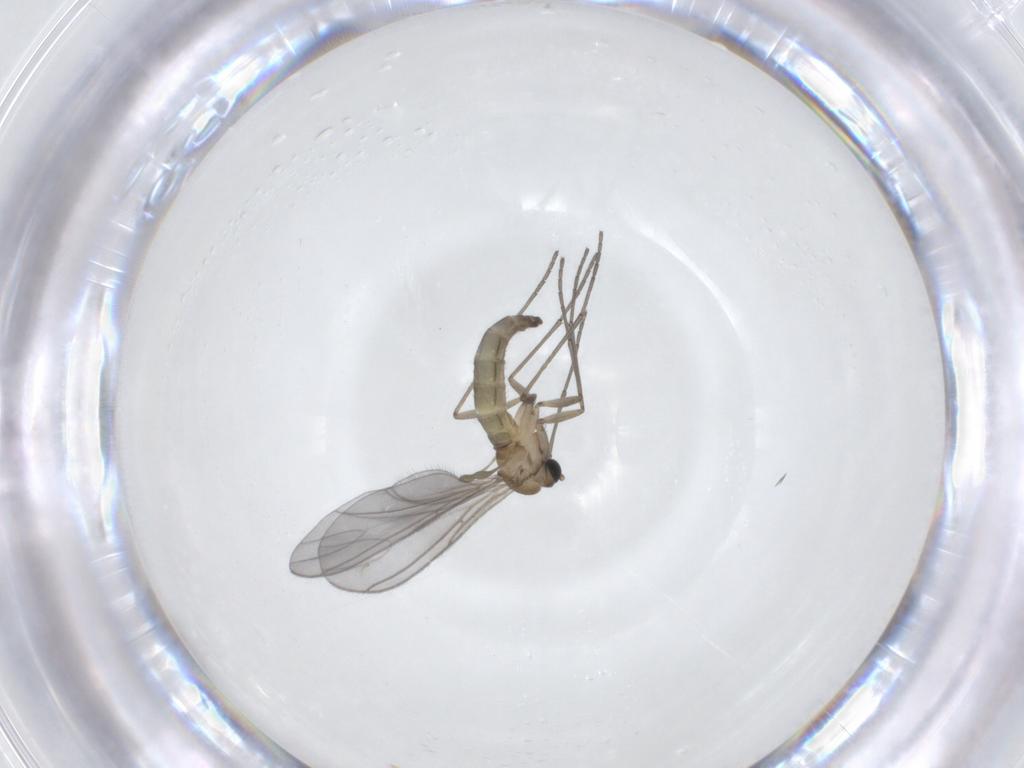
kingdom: Animalia
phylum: Arthropoda
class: Insecta
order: Diptera
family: Sciaridae
